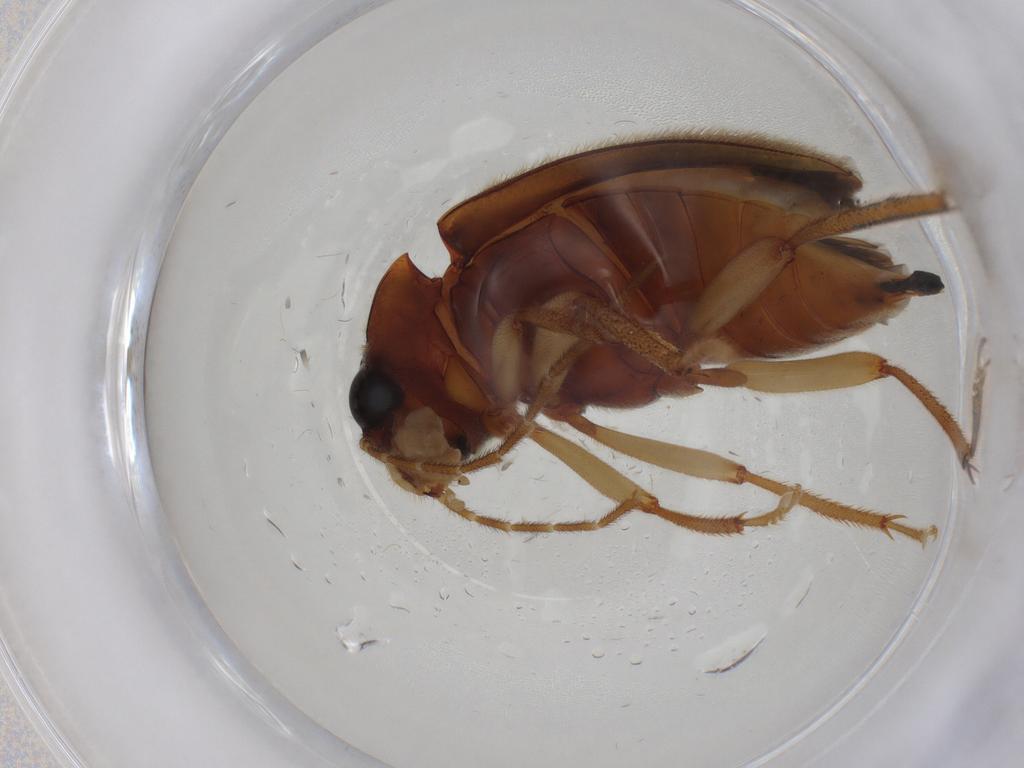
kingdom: Animalia
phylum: Arthropoda
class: Insecta
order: Coleoptera
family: Ptilodactylidae
